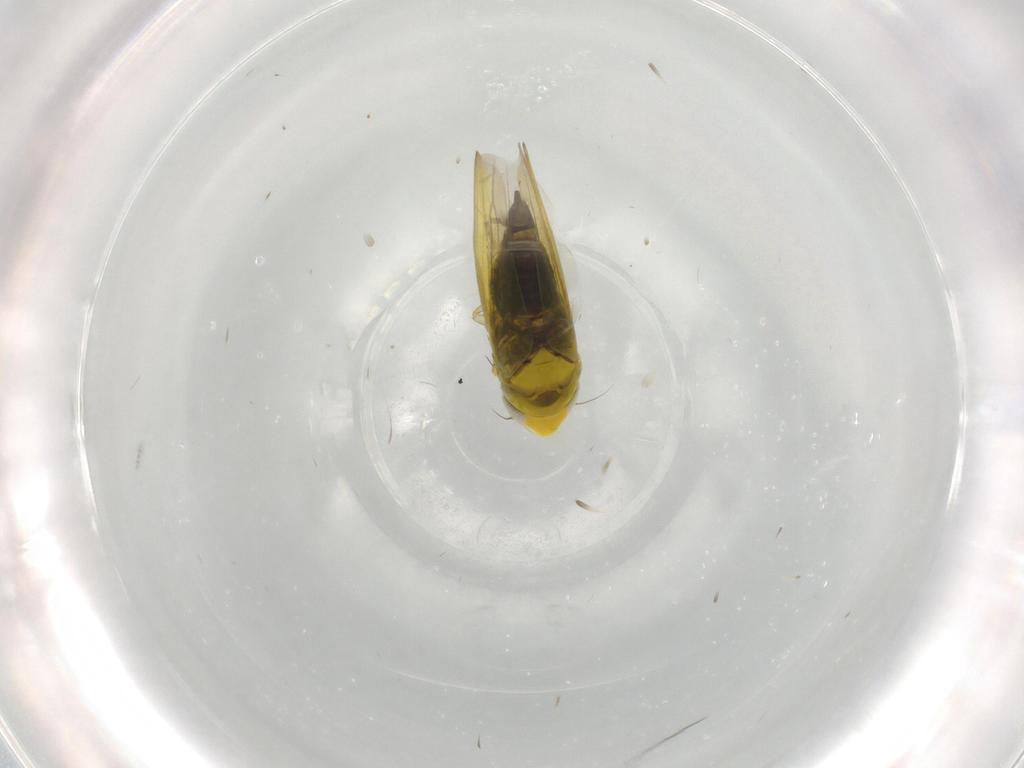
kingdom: Animalia
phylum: Arthropoda
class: Insecta
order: Hemiptera
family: Cicadellidae
